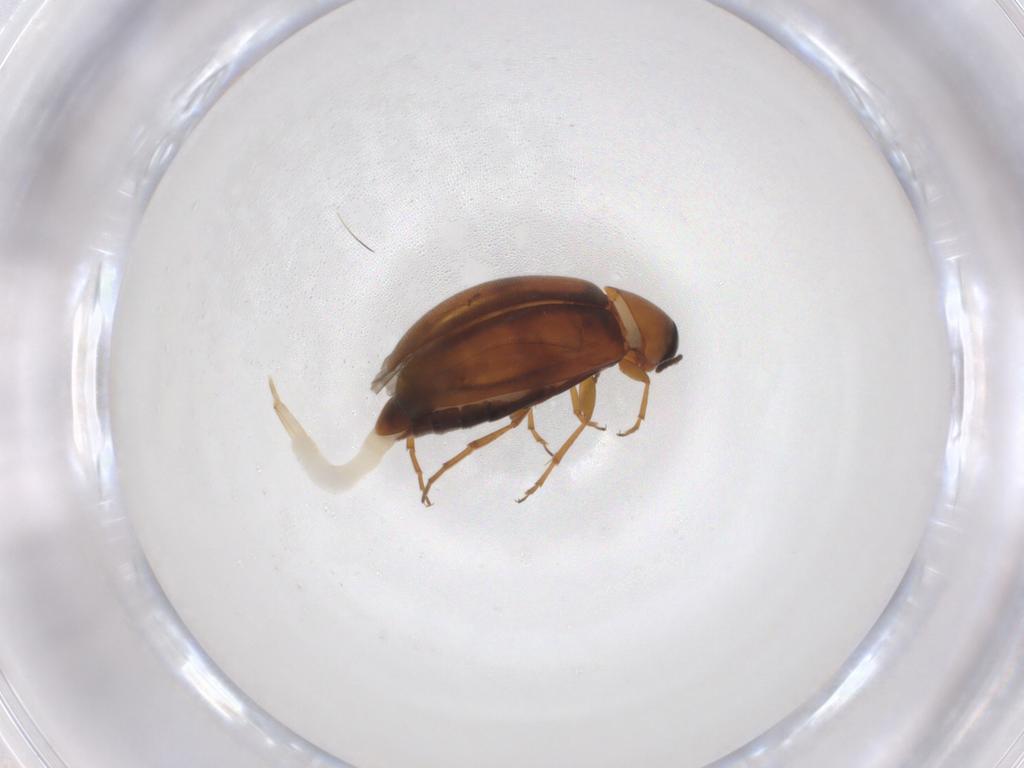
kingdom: Animalia
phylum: Arthropoda
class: Insecta
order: Coleoptera
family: Scraptiidae
